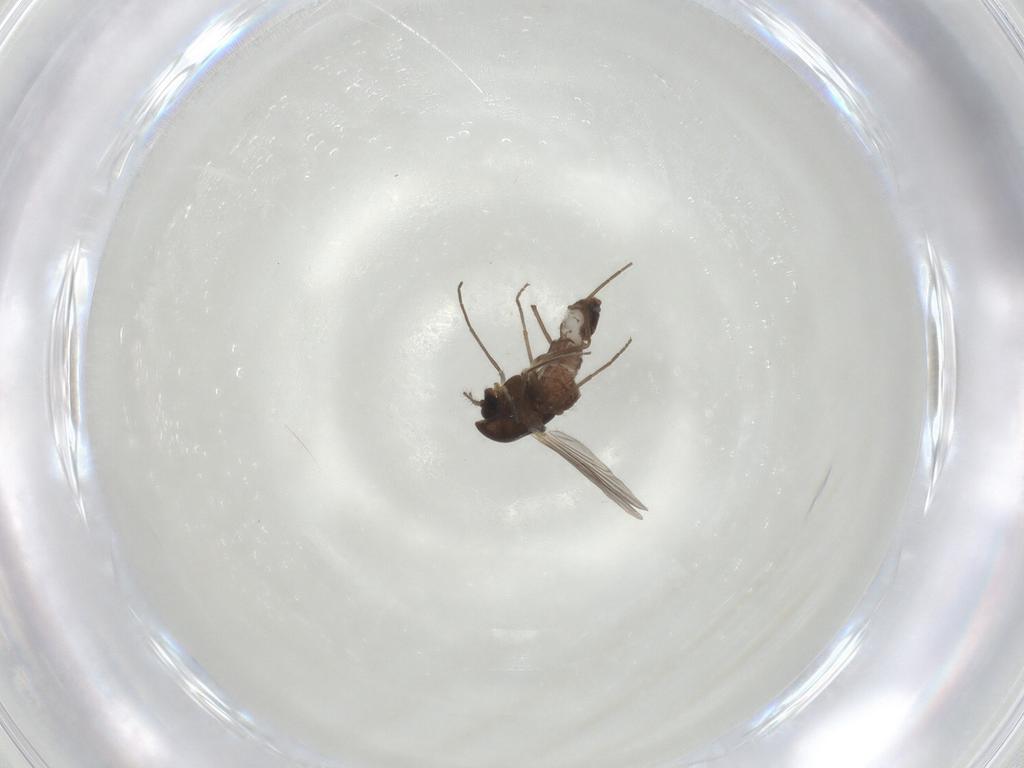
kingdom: Animalia
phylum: Arthropoda
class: Insecta
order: Diptera
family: Chironomidae
